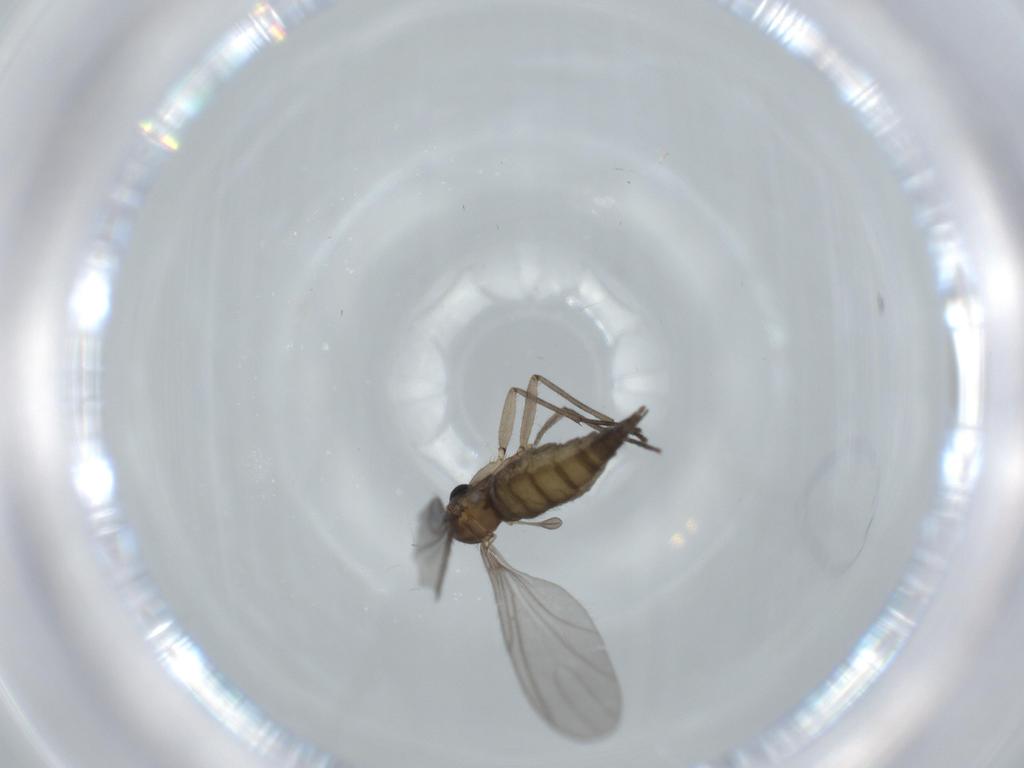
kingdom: Animalia
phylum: Arthropoda
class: Insecta
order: Diptera
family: Sciaridae
